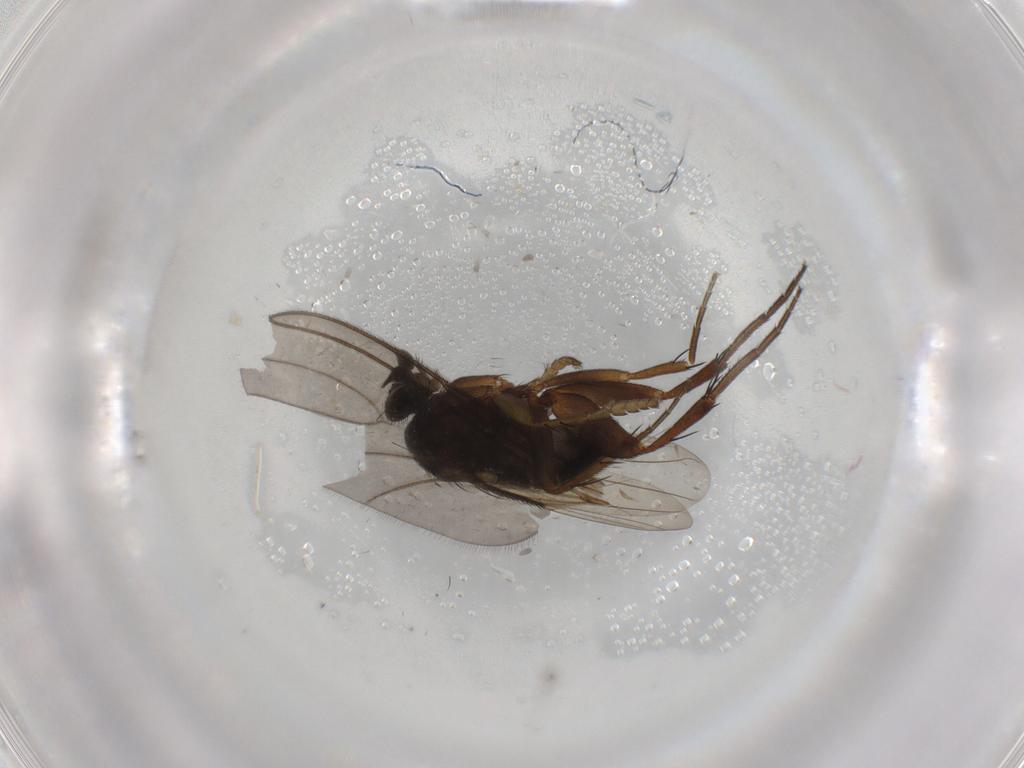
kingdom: Animalia
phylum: Arthropoda
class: Insecta
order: Diptera
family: Phoridae
